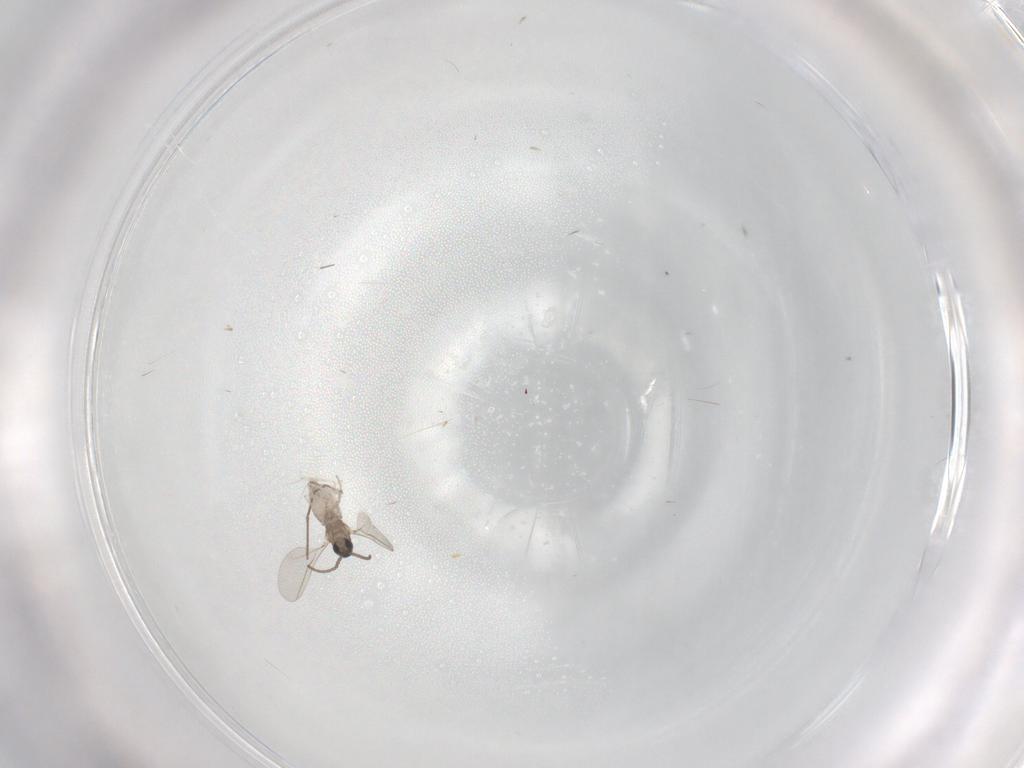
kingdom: Animalia
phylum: Arthropoda
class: Insecta
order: Diptera
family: Chironomidae
